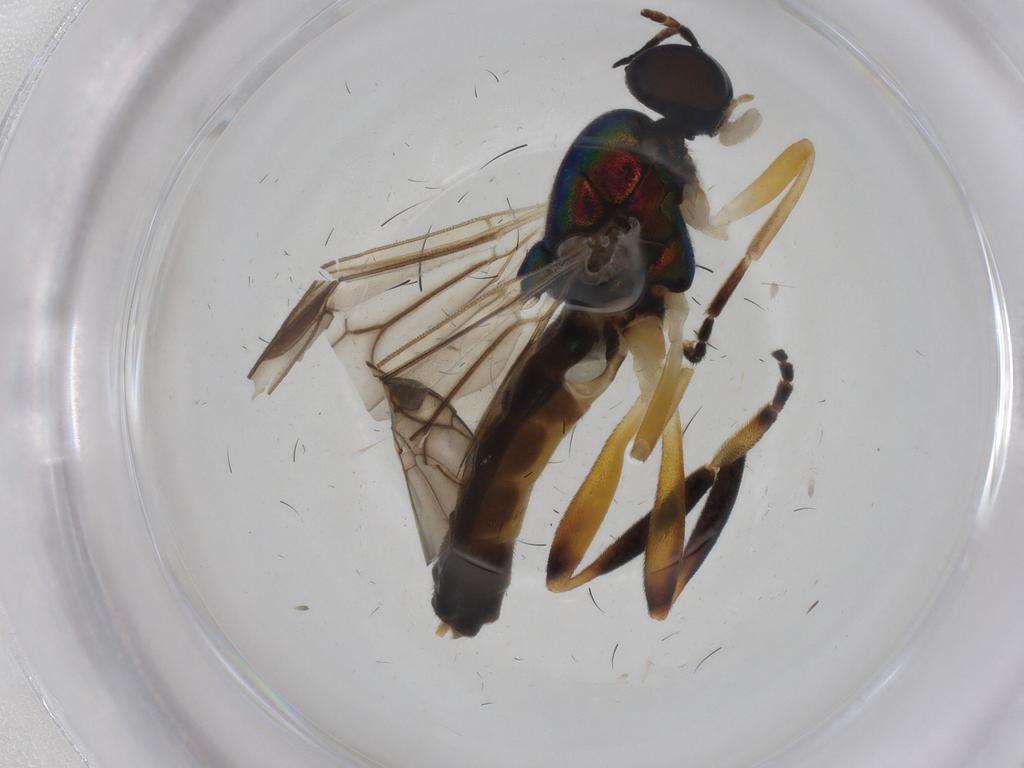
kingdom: Animalia
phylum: Arthropoda
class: Insecta
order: Diptera
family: Stratiomyidae
